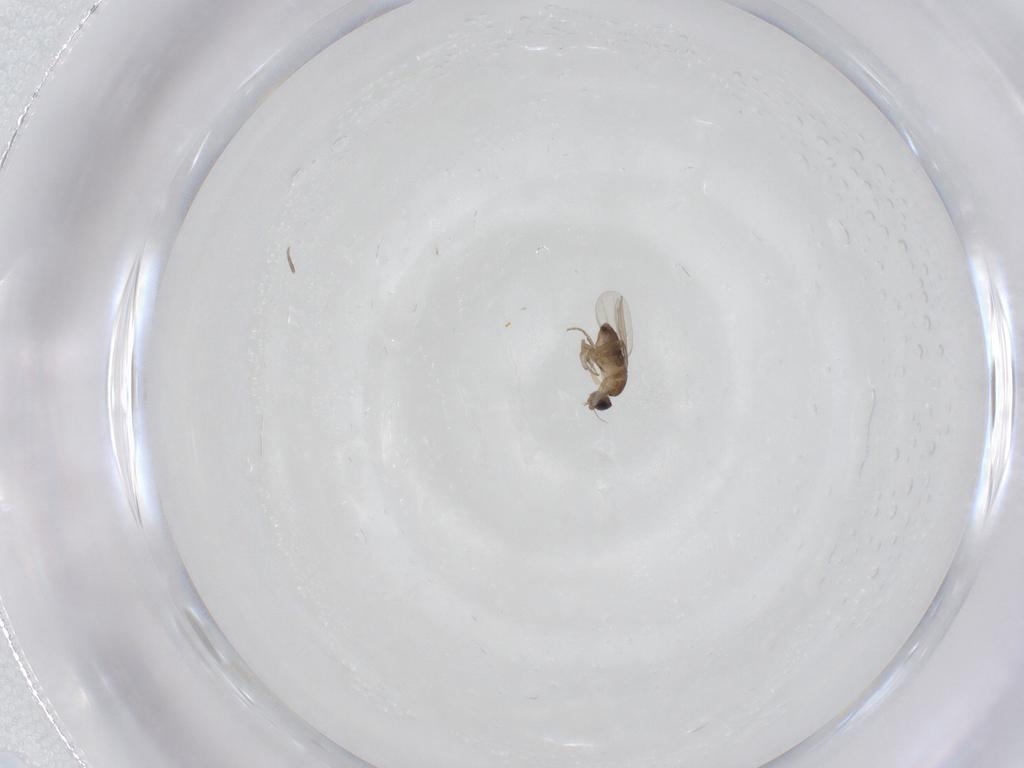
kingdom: Animalia
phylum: Arthropoda
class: Insecta
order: Diptera
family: Phoridae
